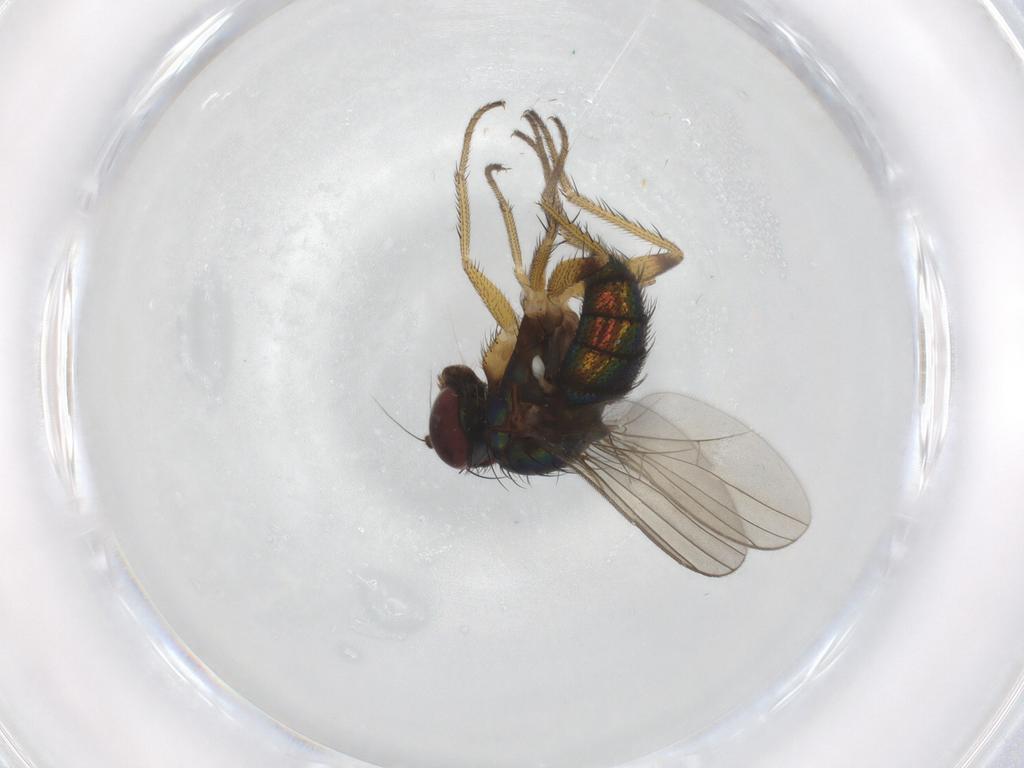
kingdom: Animalia
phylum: Arthropoda
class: Insecta
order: Diptera
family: Dolichopodidae
